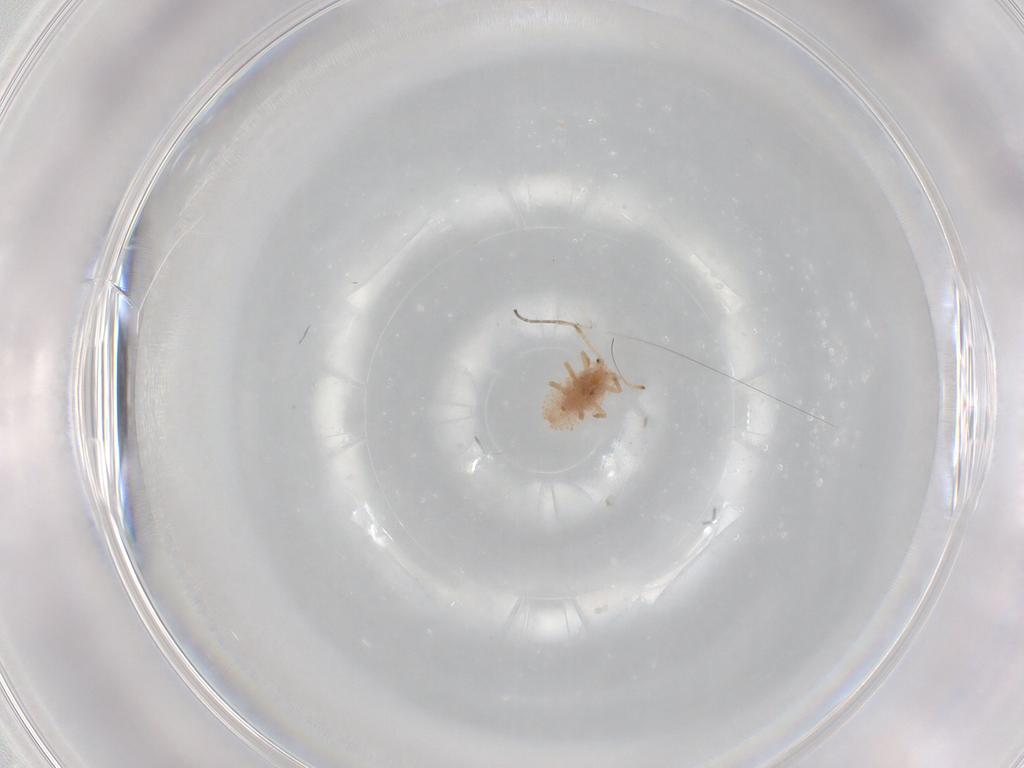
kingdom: Animalia
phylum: Arthropoda
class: Insecta
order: Hemiptera
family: Coccoidea_incertae_sedis
